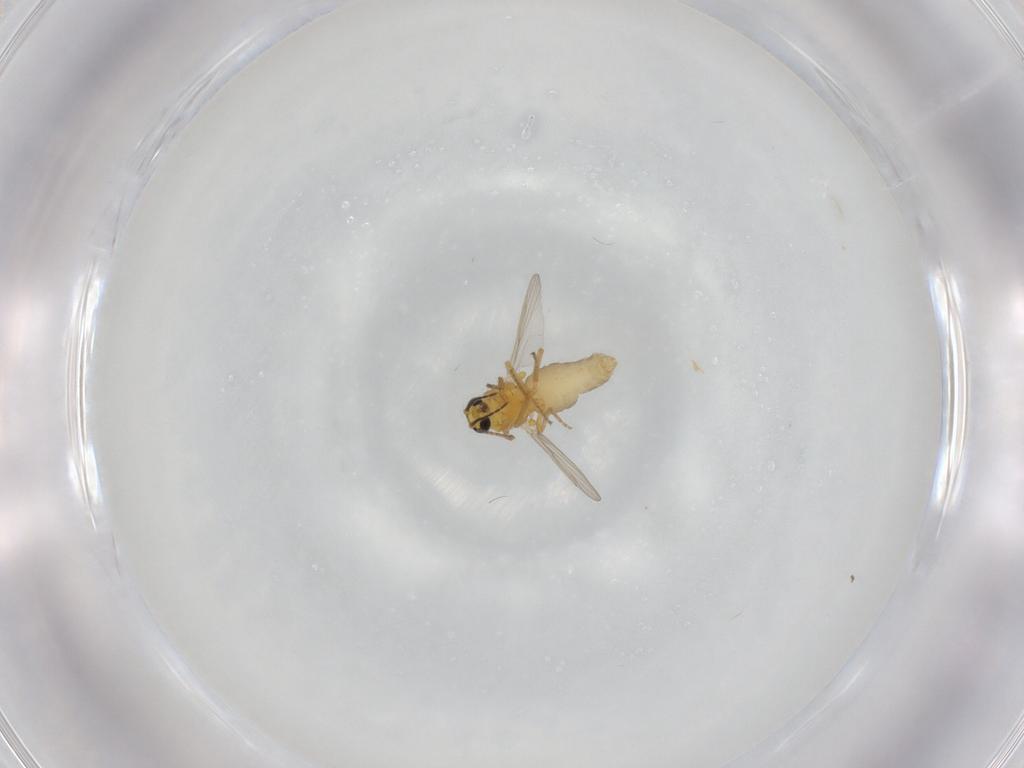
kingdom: Animalia
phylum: Arthropoda
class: Insecta
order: Diptera
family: Ceratopogonidae
